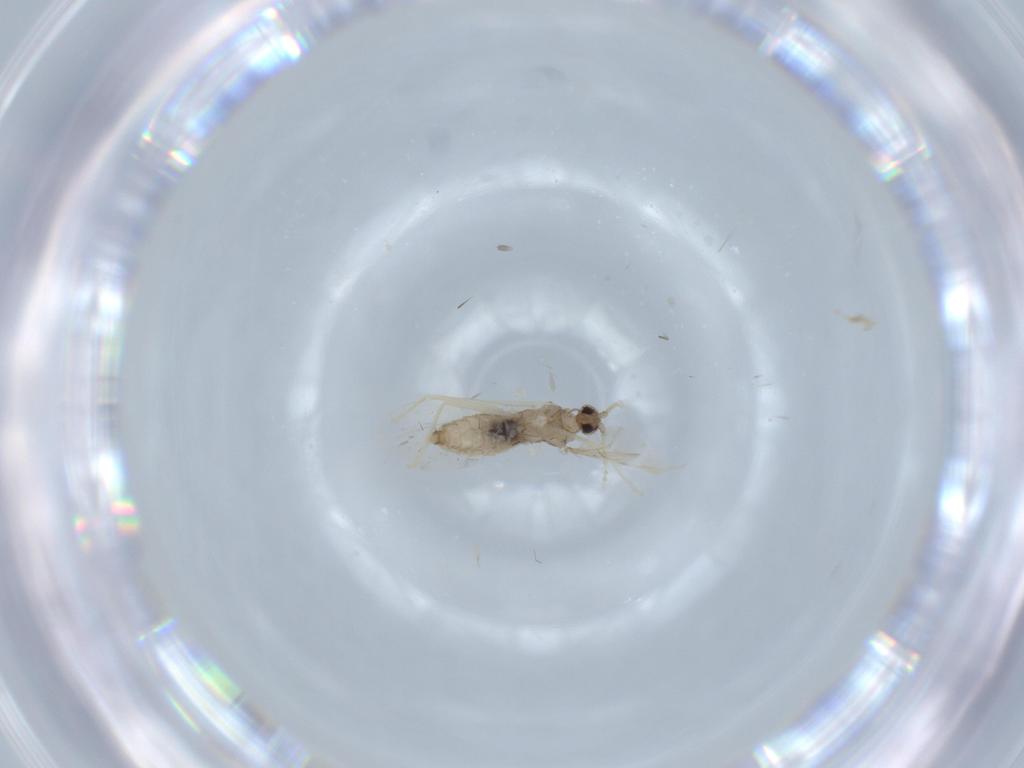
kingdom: Animalia
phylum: Arthropoda
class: Insecta
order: Diptera
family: Cecidomyiidae
